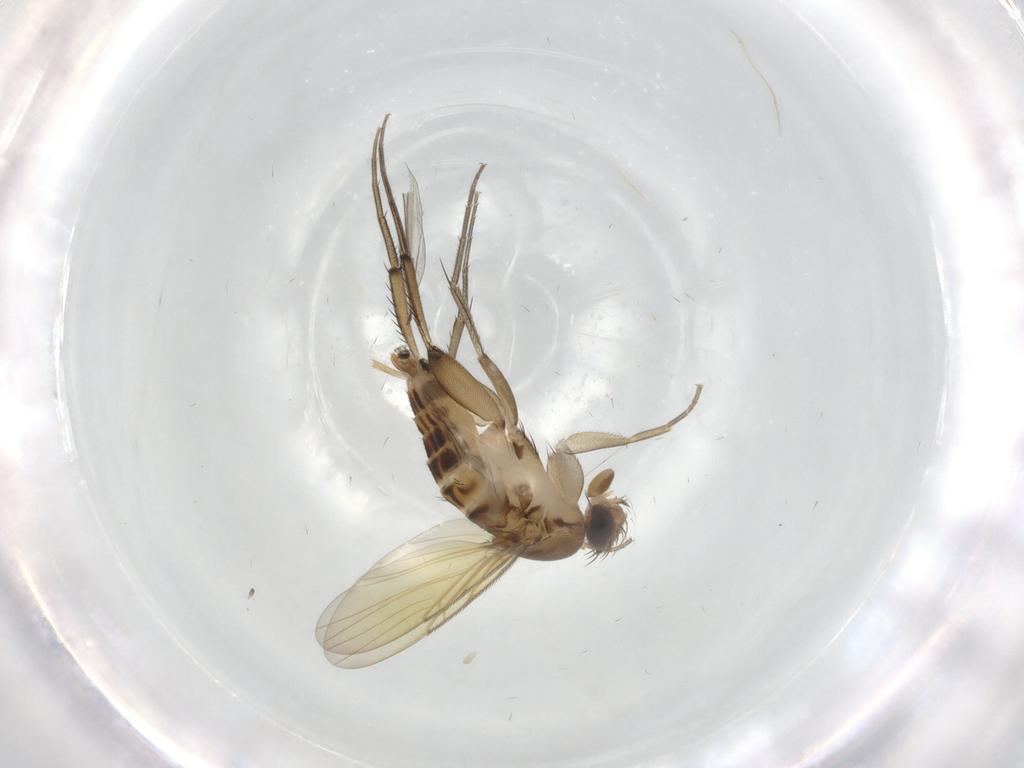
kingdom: Animalia
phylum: Arthropoda
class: Insecta
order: Diptera
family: Phoridae
